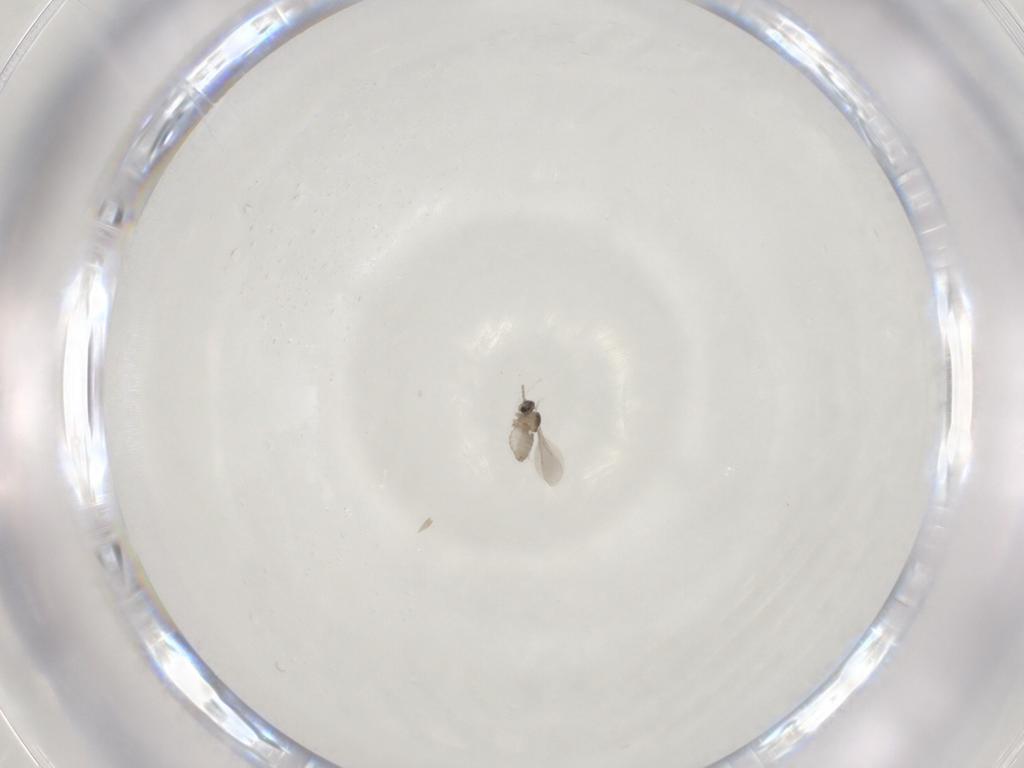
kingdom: Animalia
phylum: Arthropoda
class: Insecta
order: Diptera
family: Cecidomyiidae
